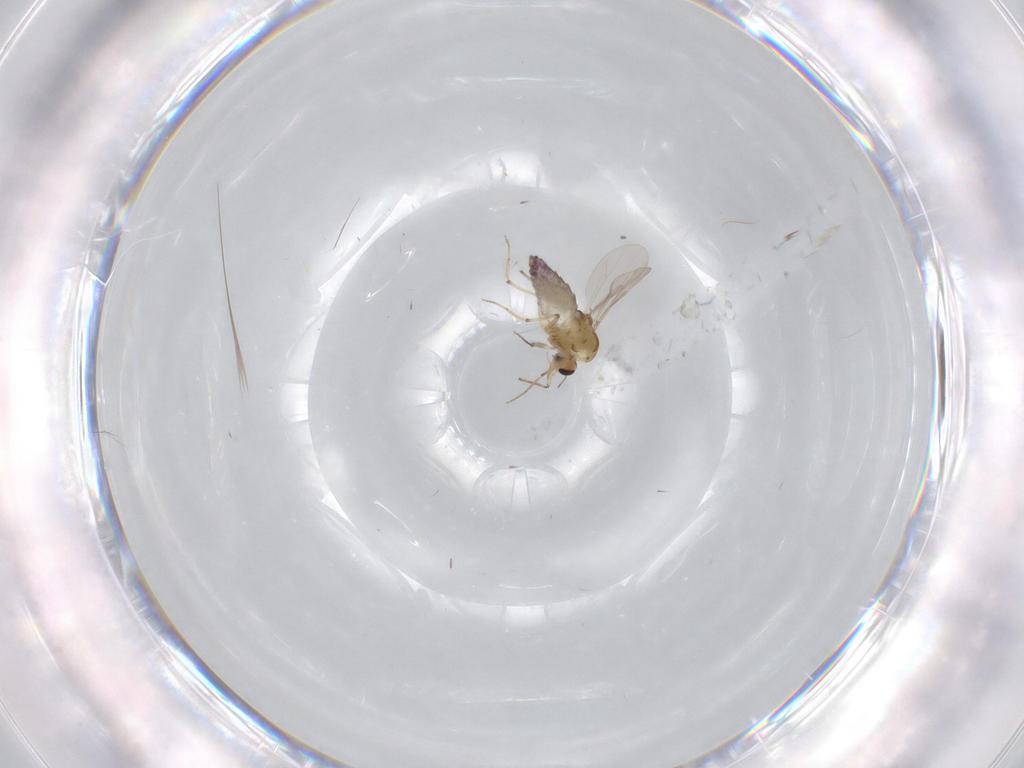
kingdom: Animalia
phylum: Arthropoda
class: Insecta
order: Diptera
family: Chironomidae
